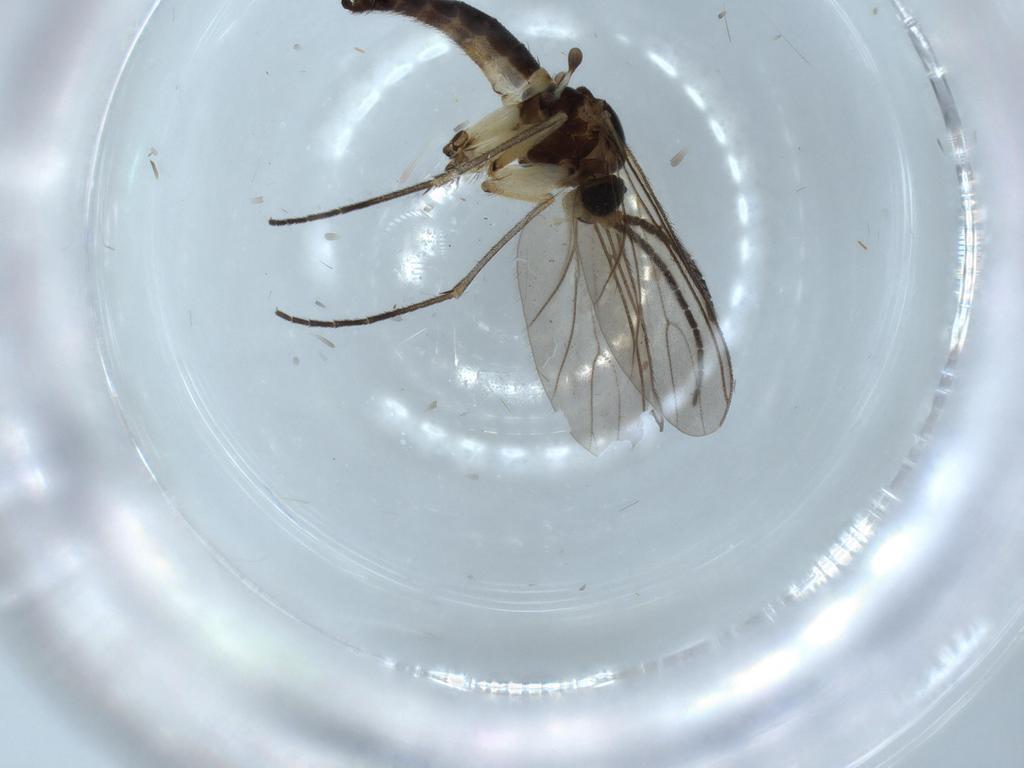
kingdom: Animalia
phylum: Arthropoda
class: Insecta
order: Diptera
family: Sciaridae
